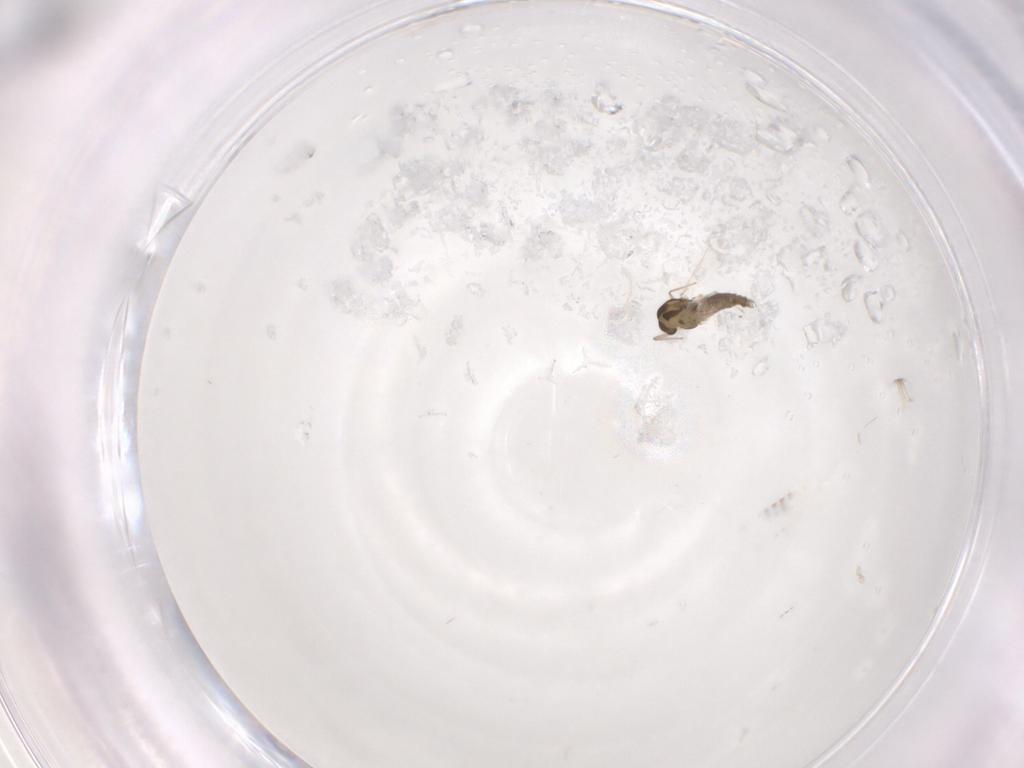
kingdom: Animalia
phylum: Arthropoda
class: Insecta
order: Diptera
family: Chironomidae
